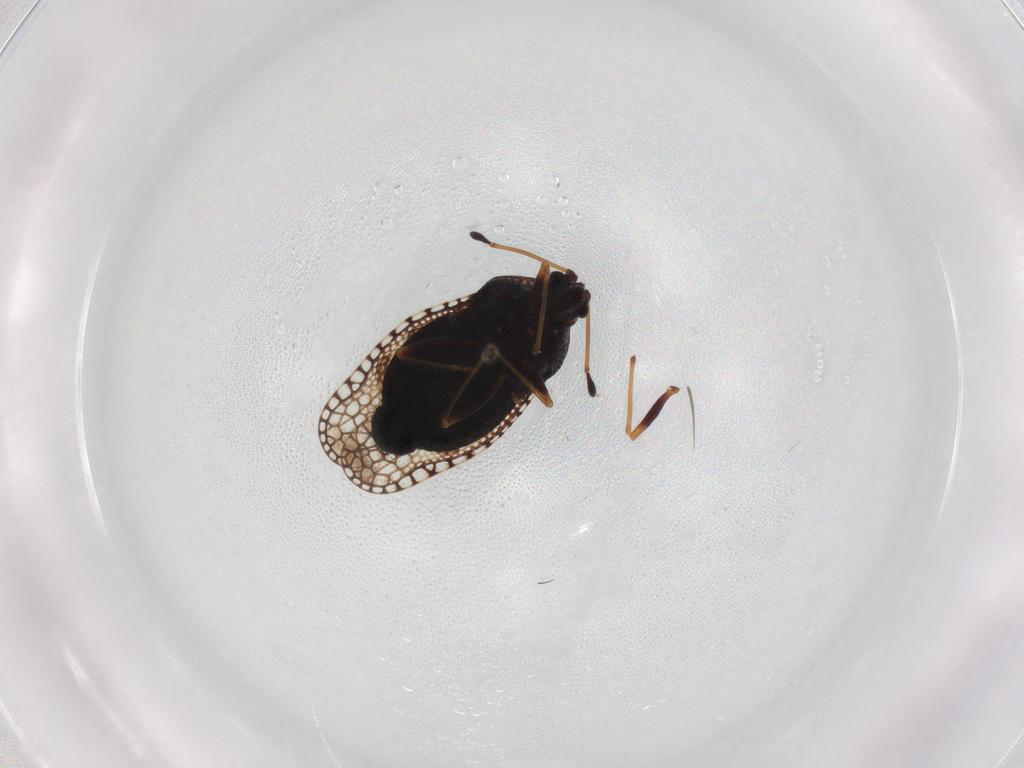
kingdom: Animalia
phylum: Arthropoda
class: Insecta
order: Hemiptera
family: Tingidae
